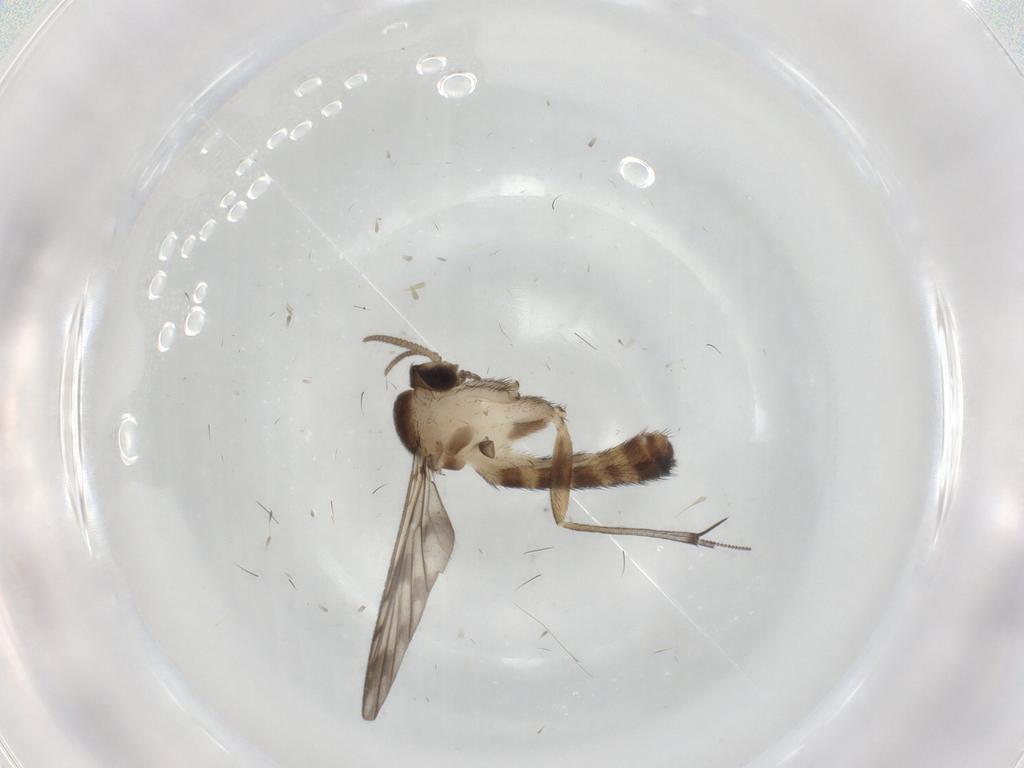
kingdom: Animalia
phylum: Arthropoda
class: Insecta
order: Diptera
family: Keroplatidae
